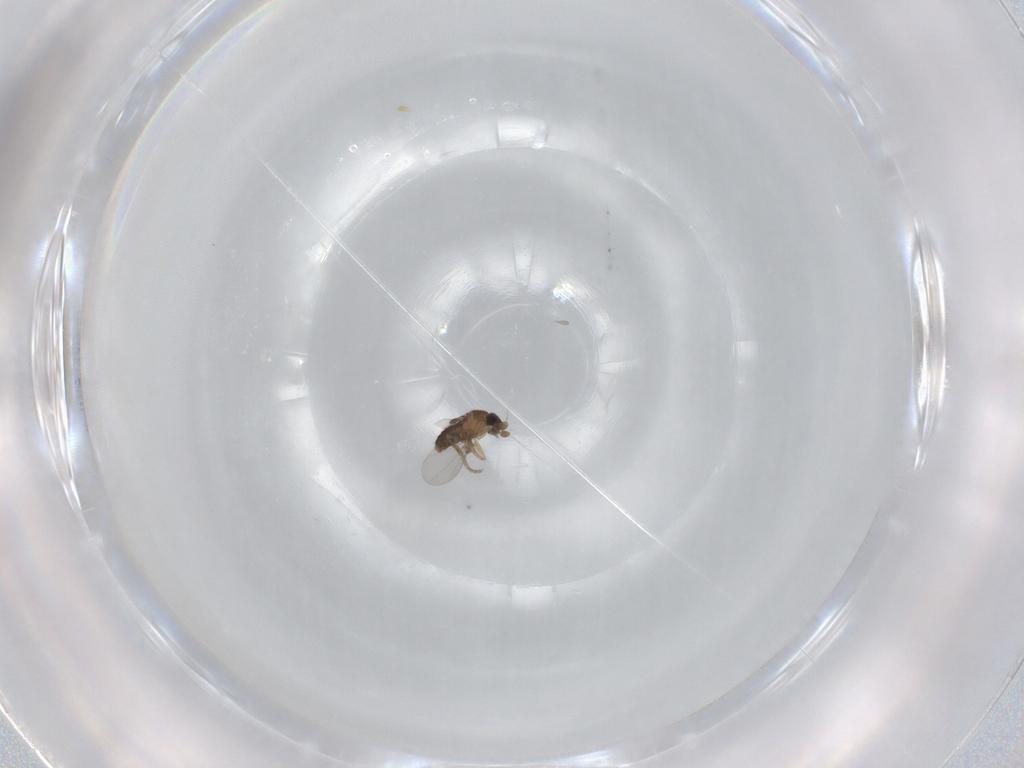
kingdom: Animalia
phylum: Arthropoda
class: Insecta
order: Diptera
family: Phoridae
